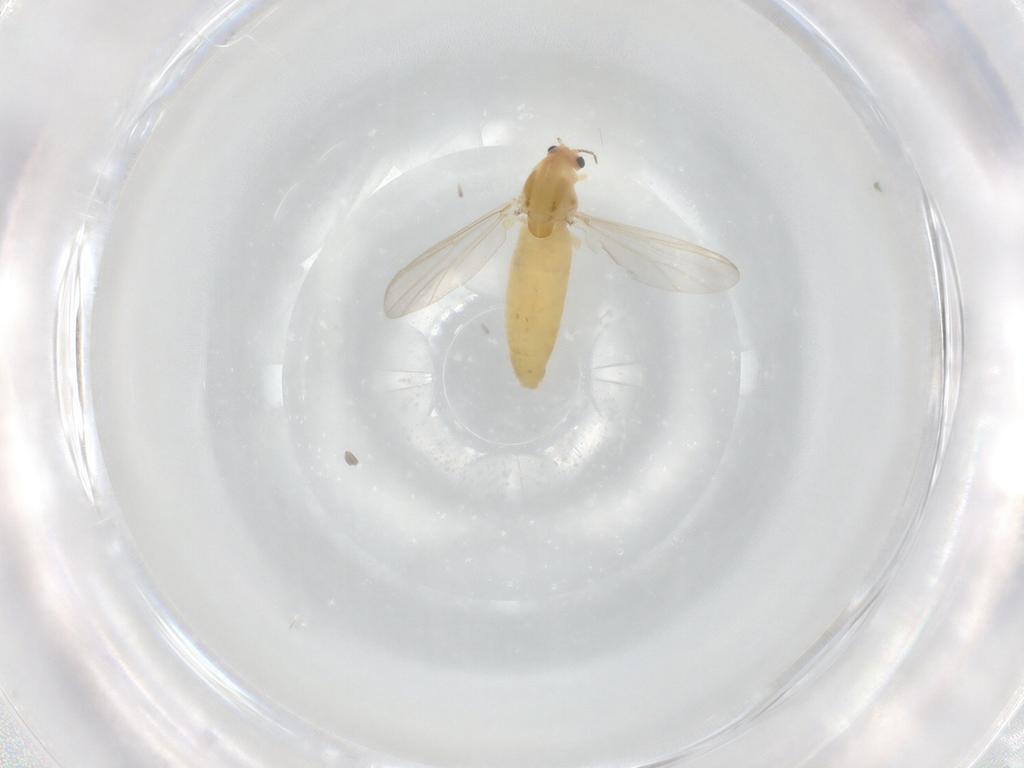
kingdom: Animalia
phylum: Arthropoda
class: Insecta
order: Diptera
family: Chironomidae
